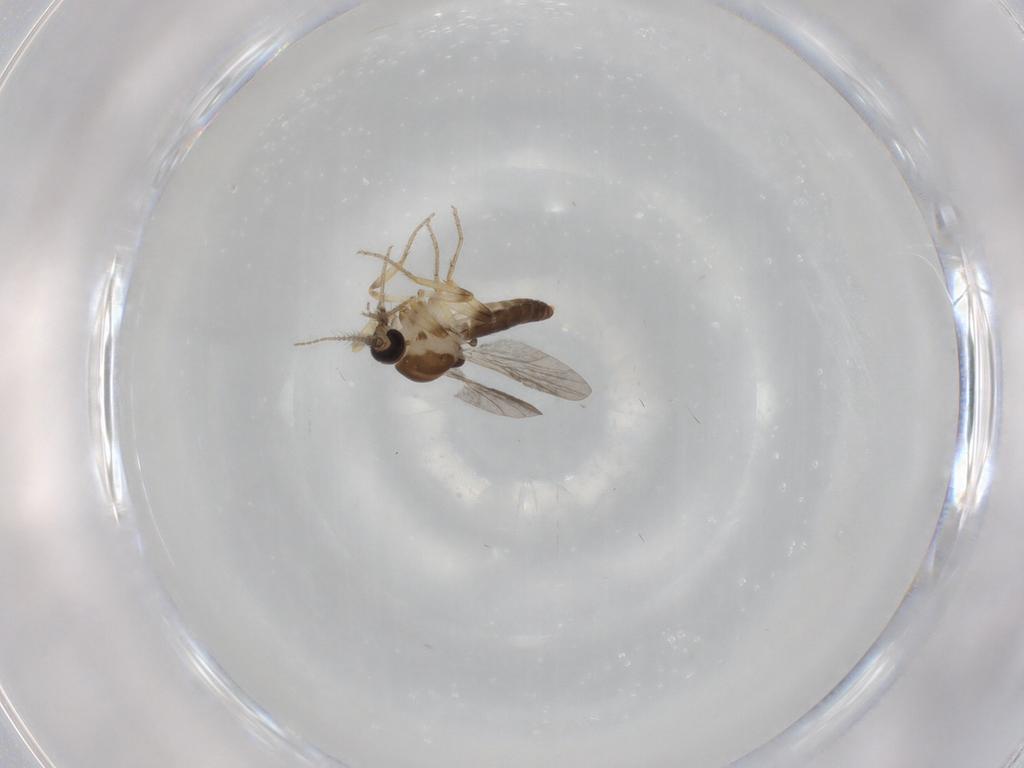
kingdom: Animalia
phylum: Arthropoda
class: Insecta
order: Diptera
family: Ceratopogonidae
